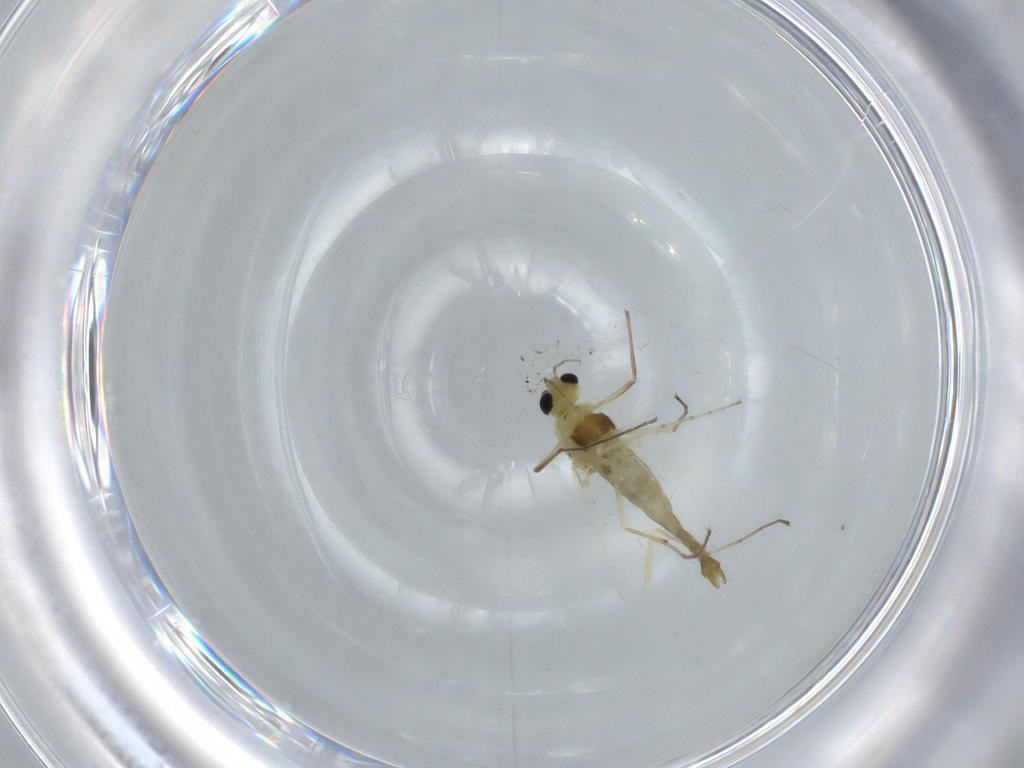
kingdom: Animalia
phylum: Arthropoda
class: Insecta
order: Diptera
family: Chironomidae
